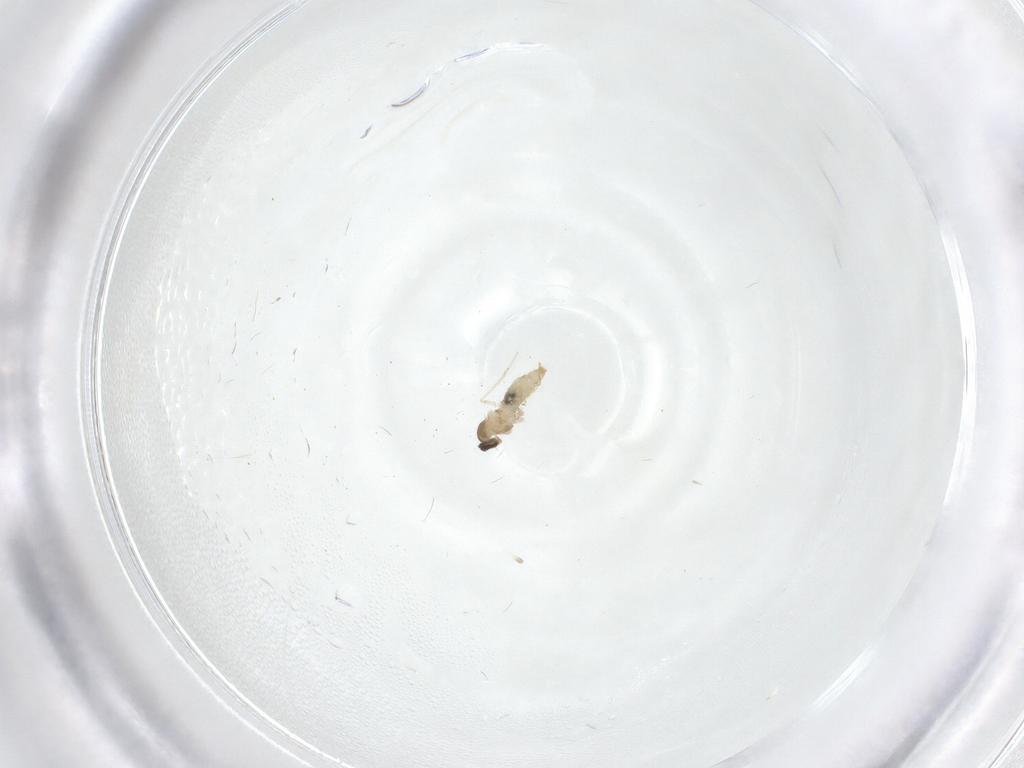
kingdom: Animalia
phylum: Arthropoda
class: Insecta
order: Diptera
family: Cecidomyiidae
